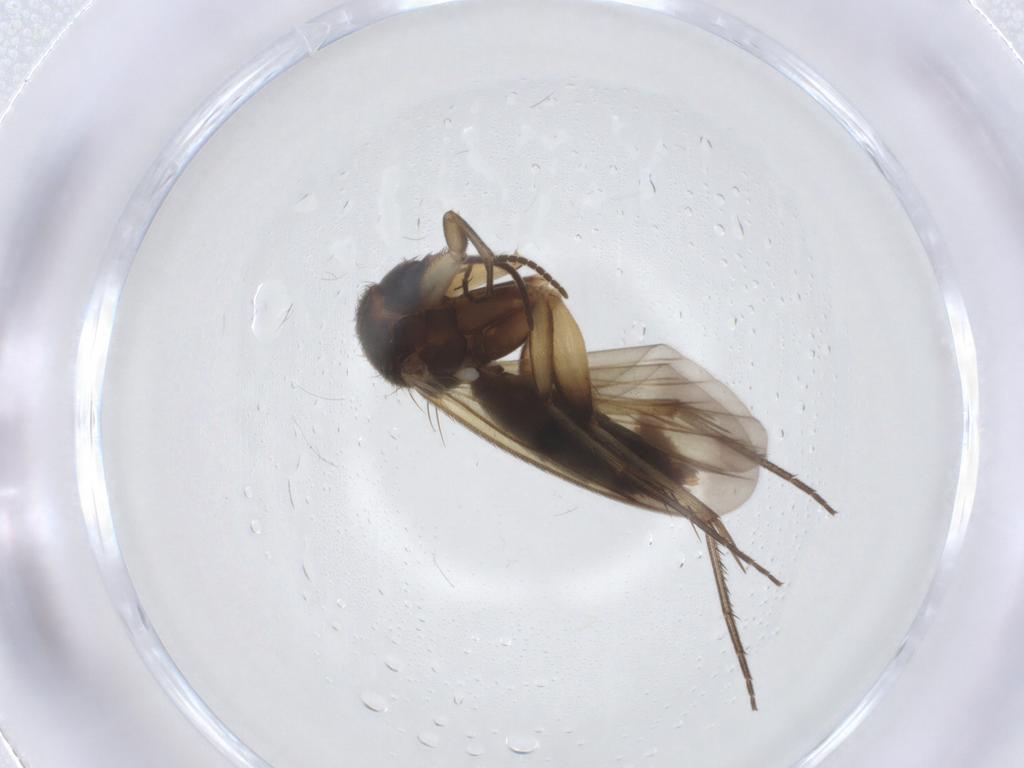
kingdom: Animalia
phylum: Arthropoda
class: Insecta
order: Diptera
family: Mycetophilidae
